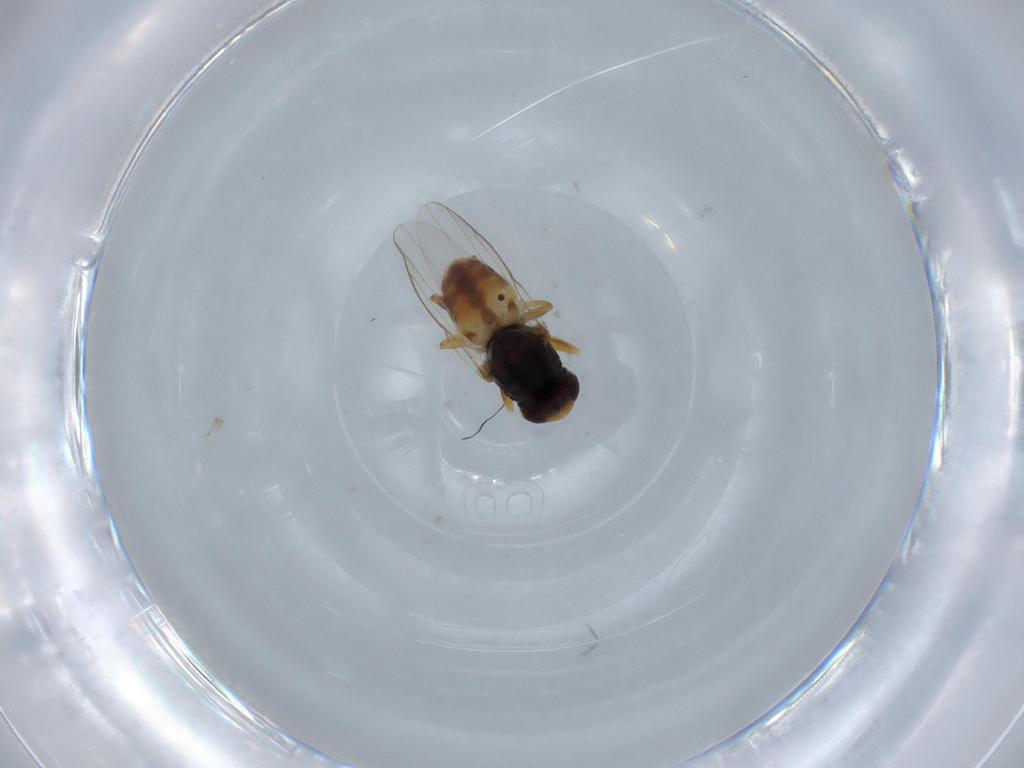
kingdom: Animalia
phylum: Arthropoda
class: Insecta
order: Diptera
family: Chloropidae
